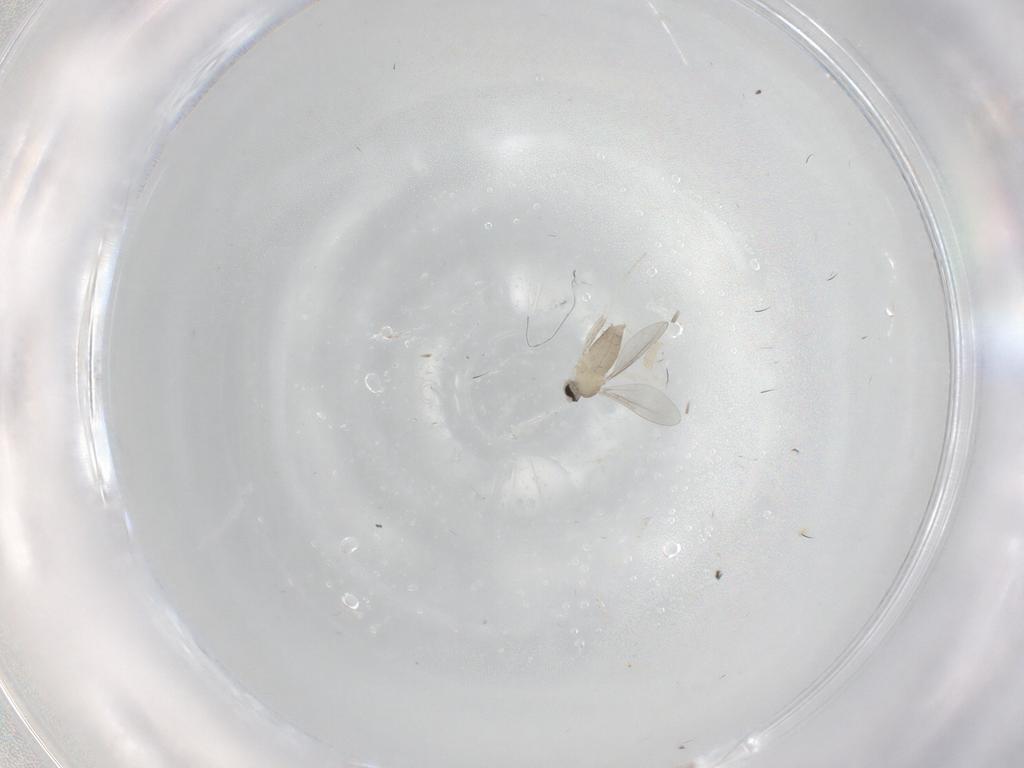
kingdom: Animalia
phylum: Arthropoda
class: Insecta
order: Diptera
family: Cecidomyiidae
